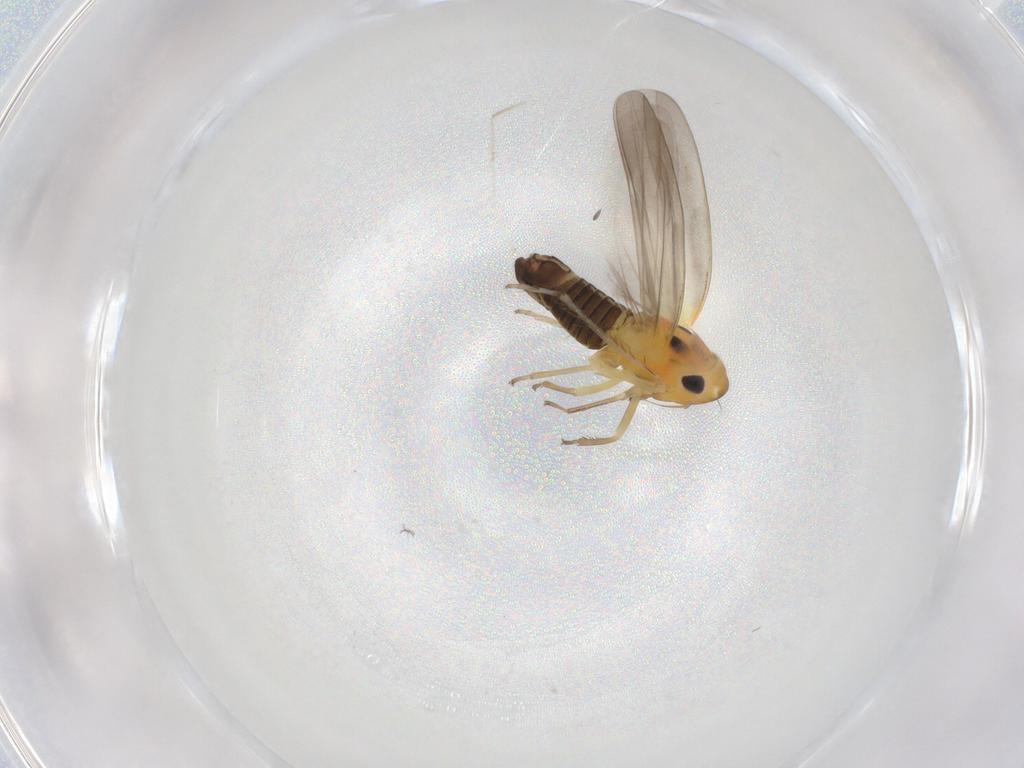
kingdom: Animalia
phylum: Arthropoda
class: Insecta
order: Hemiptera
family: Cicadellidae
